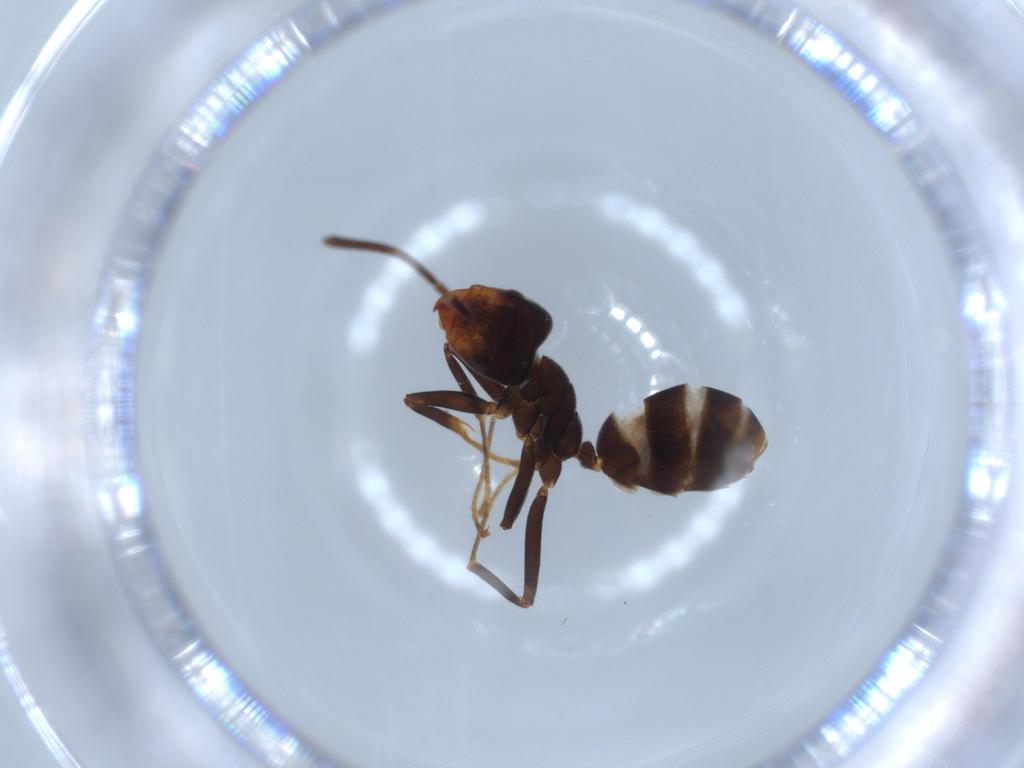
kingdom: Animalia
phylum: Arthropoda
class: Insecta
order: Hymenoptera
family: Formicidae
